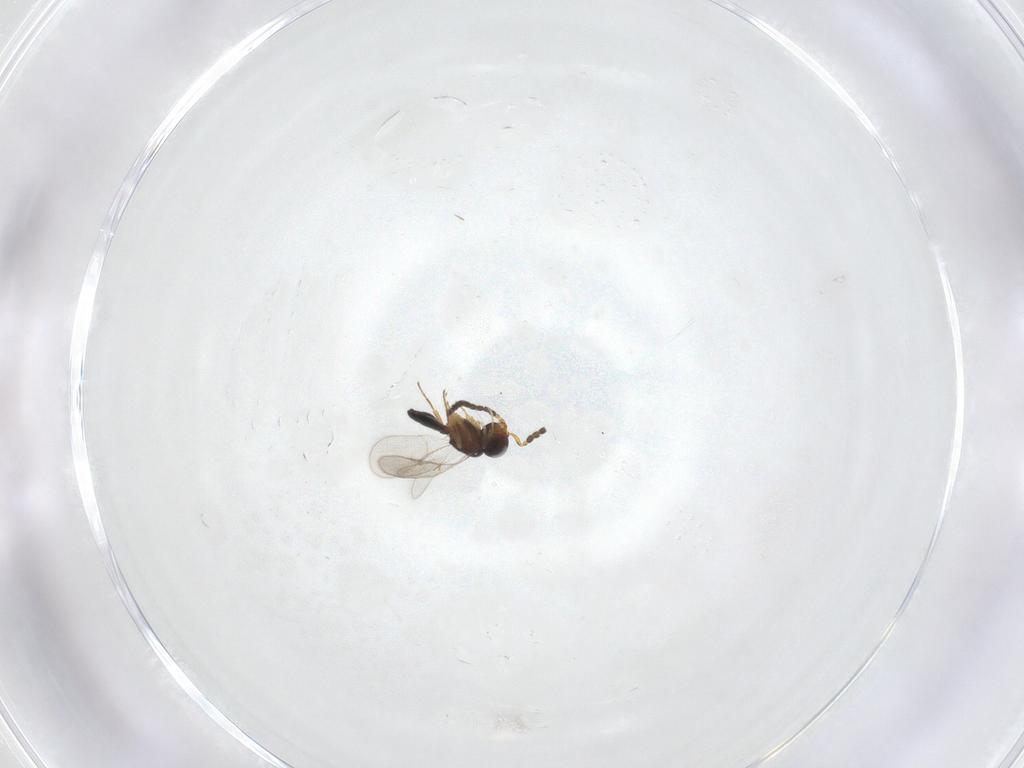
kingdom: Animalia
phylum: Arthropoda
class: Insecta
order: Hymenoptera
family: Scelionidae
